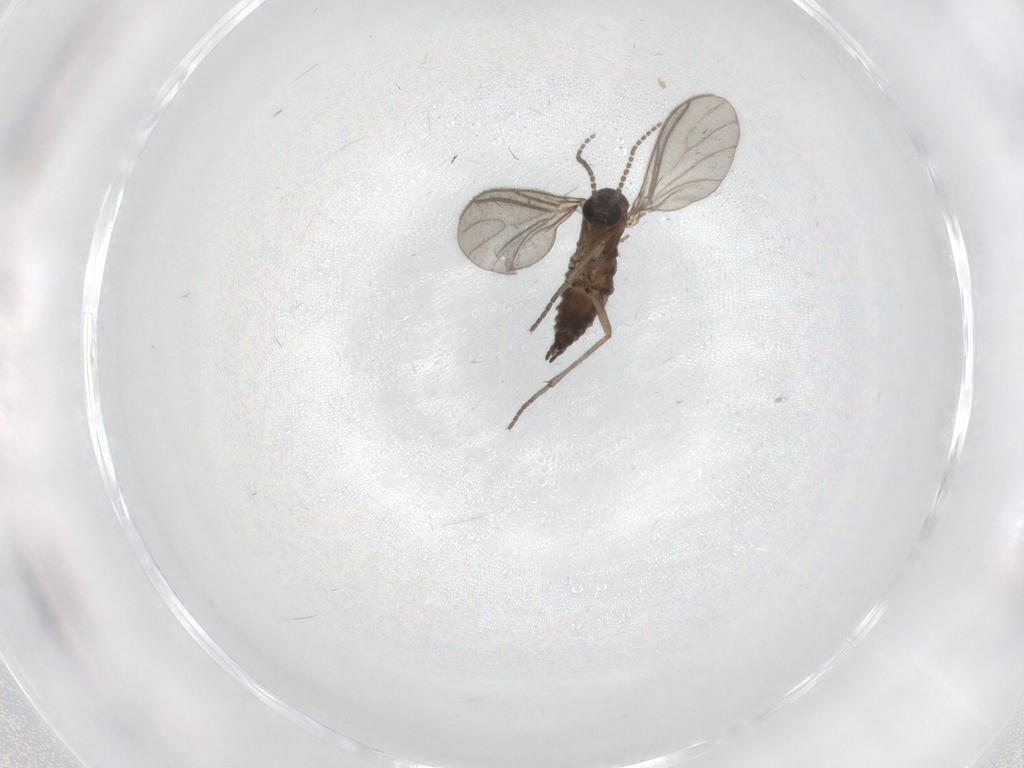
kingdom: Animalia
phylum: Arthropoda
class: Insecta
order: Diptera
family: Sciaridae
